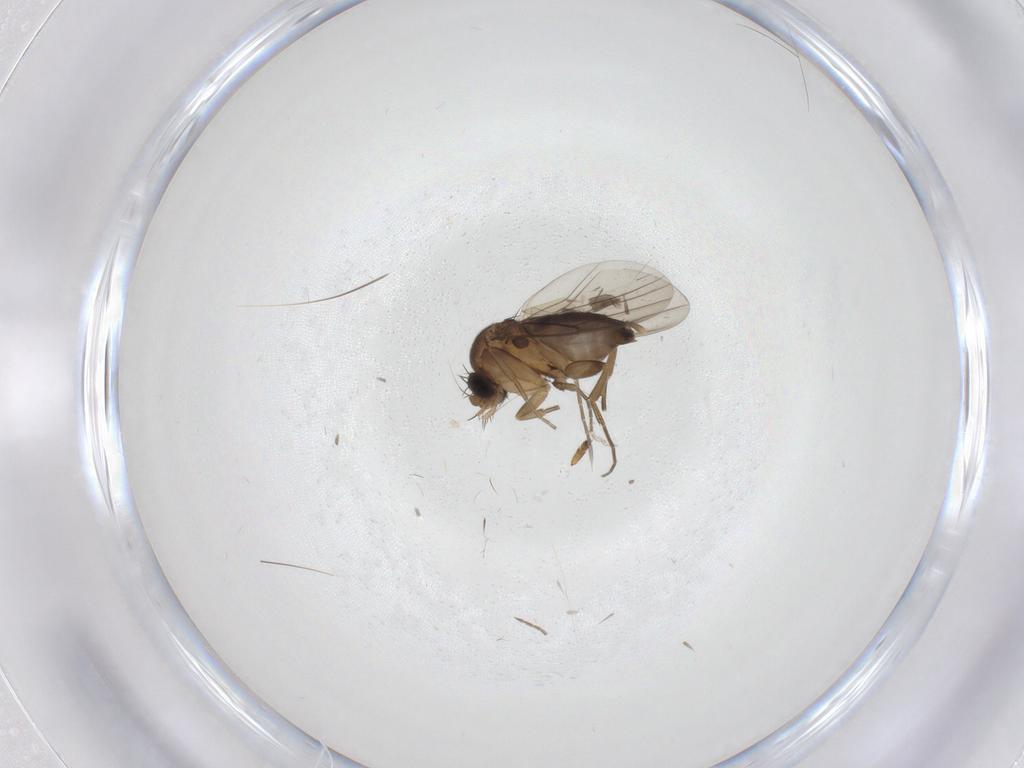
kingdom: Animalia
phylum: Arthropoda
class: Insecta
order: Diptera
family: Phoridae
